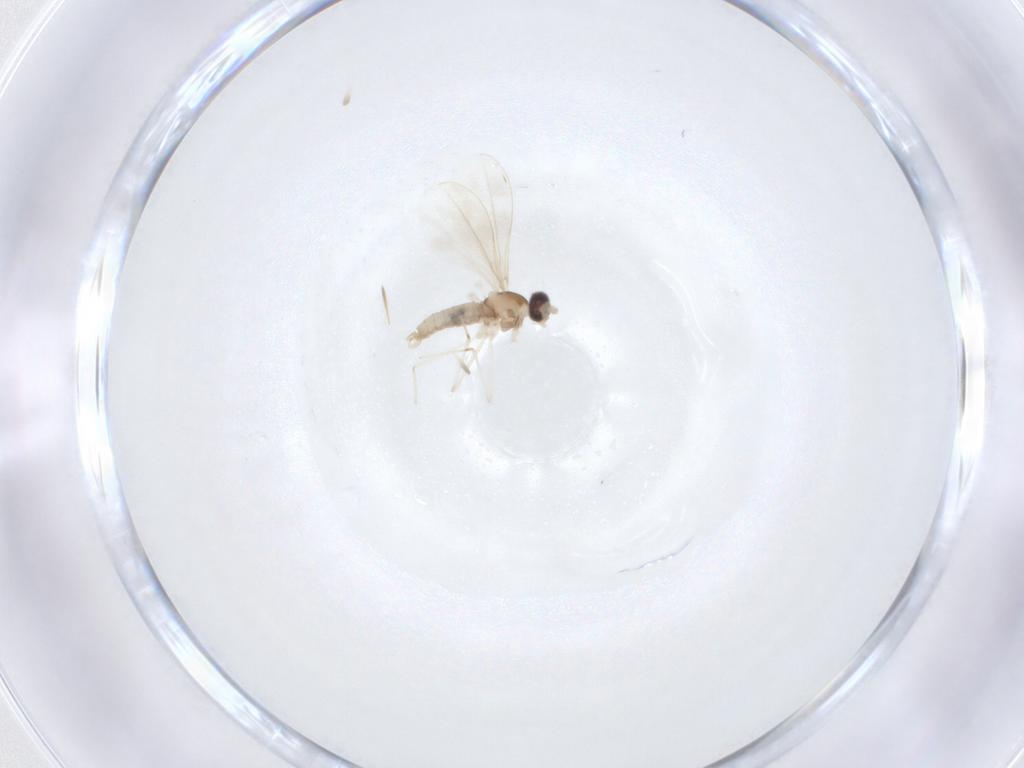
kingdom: Animalia
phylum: Arthropoda
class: Insecta
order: Diptera
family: Cecidomyiidae
